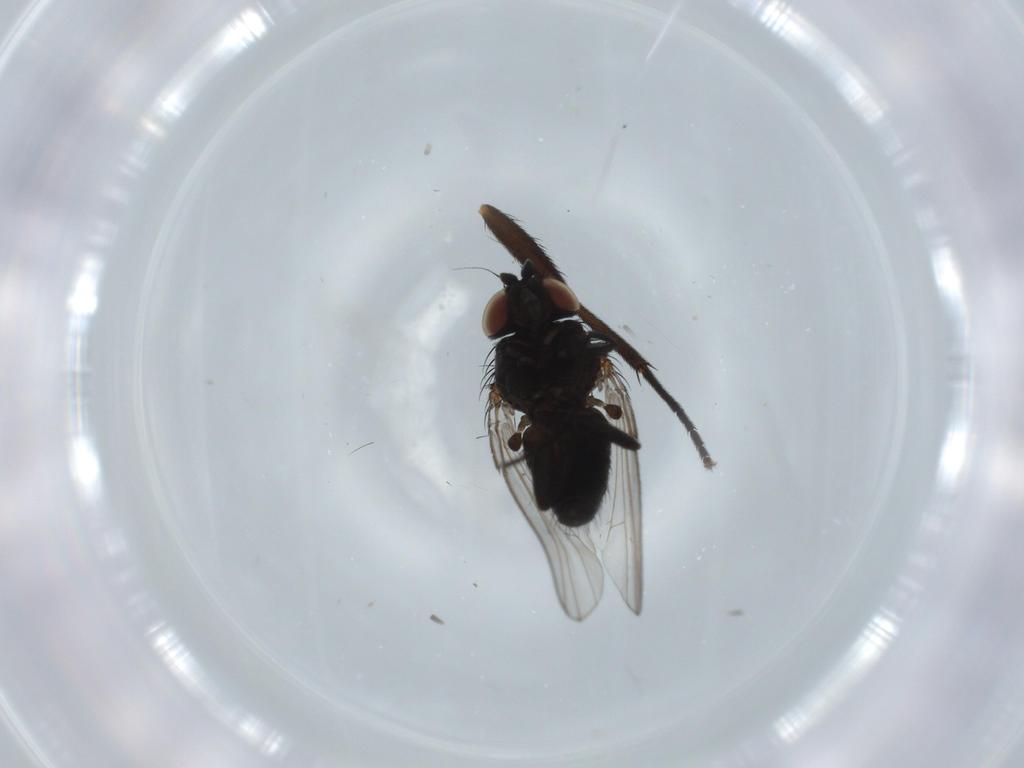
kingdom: Animalia
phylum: Arthropoda
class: Insecta
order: Diptera
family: Milichiidae
